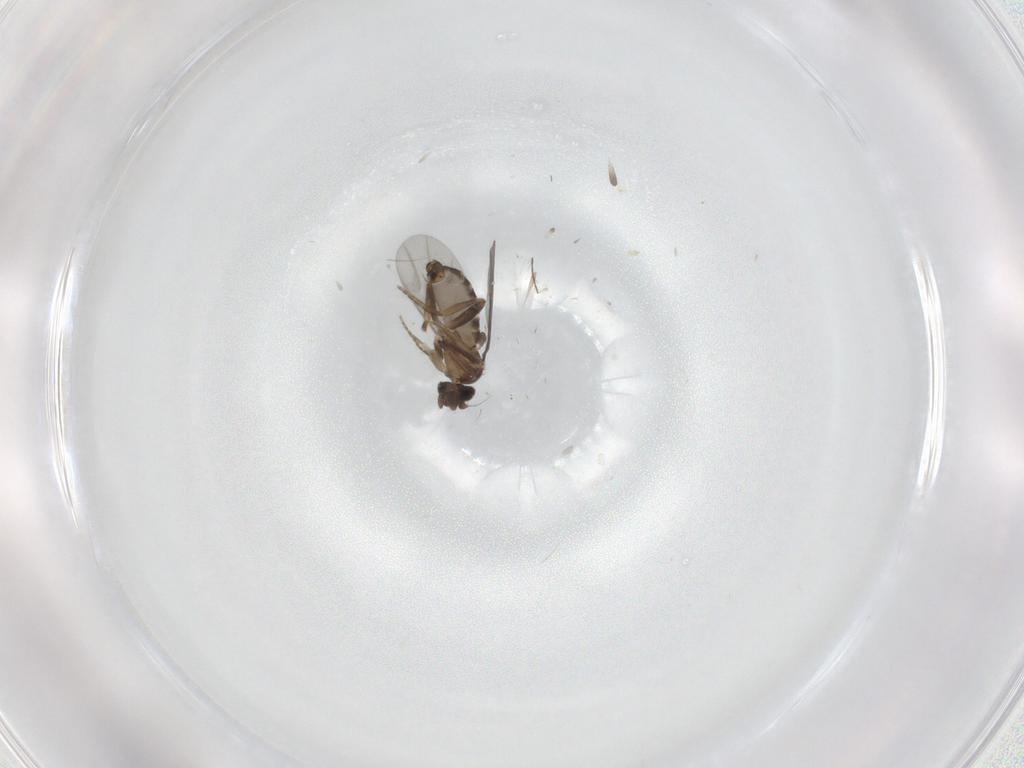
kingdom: Animalia
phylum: Arthropoda
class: Insecta
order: Diptera
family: Phoridae
